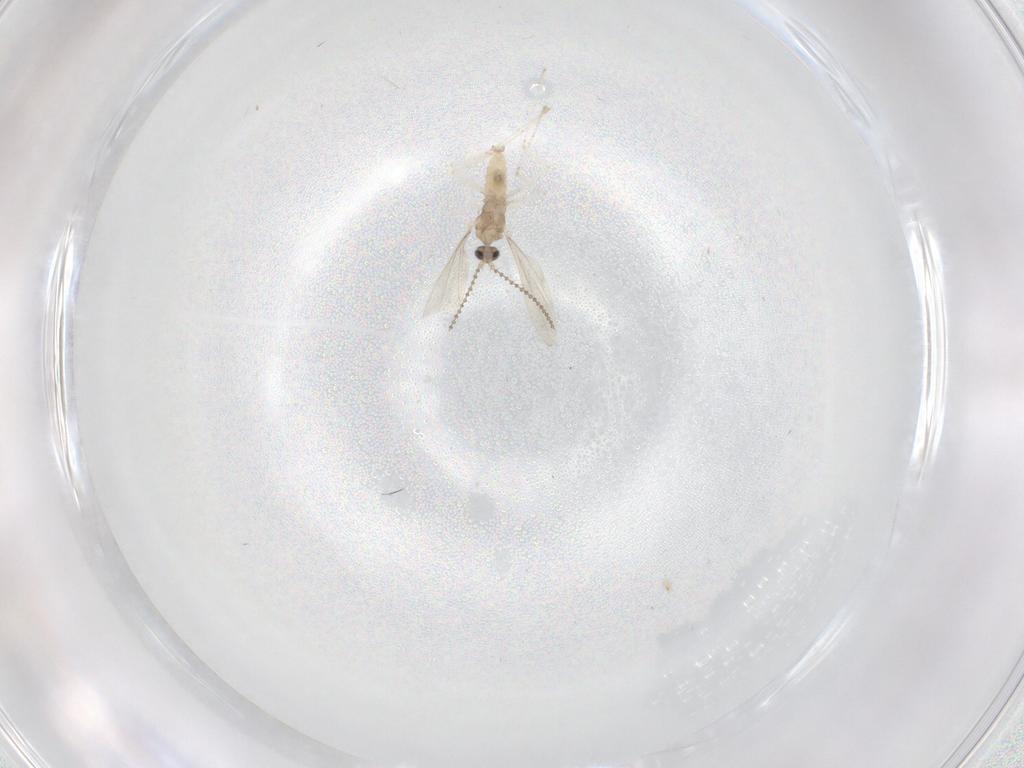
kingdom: Animalia
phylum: Arthropoda
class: Insecta
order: Diptera
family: Cecidomyiidae
